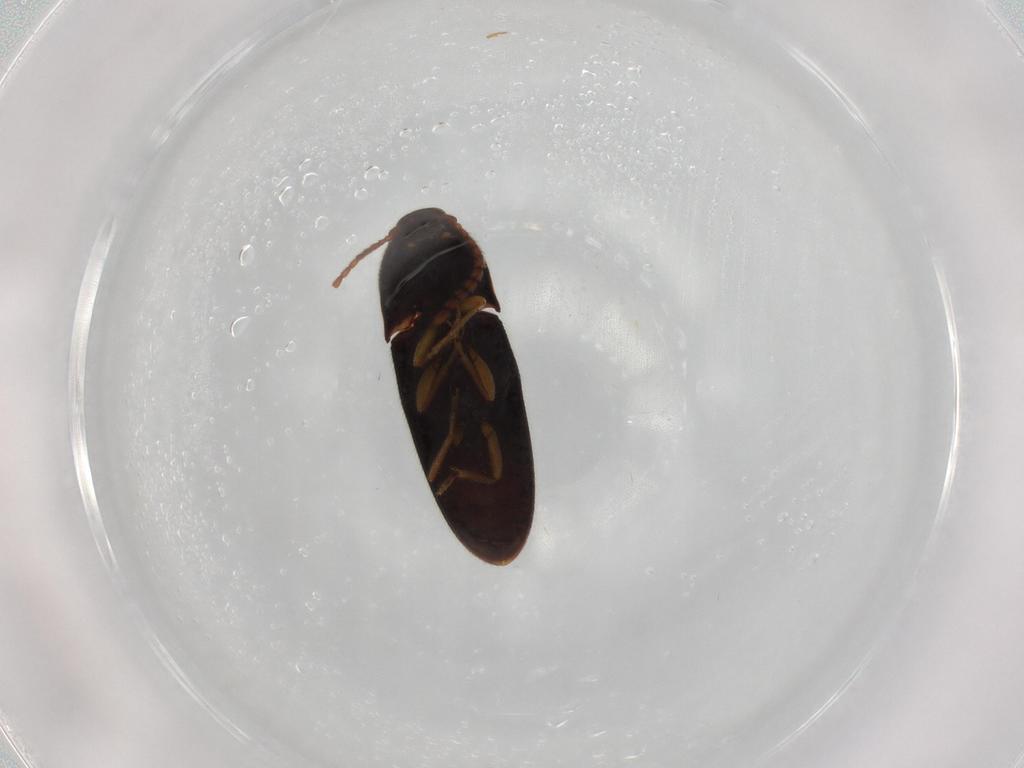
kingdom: Animalia
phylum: Arthropoda
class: Insecta
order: Coleoptera
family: Elateridae
